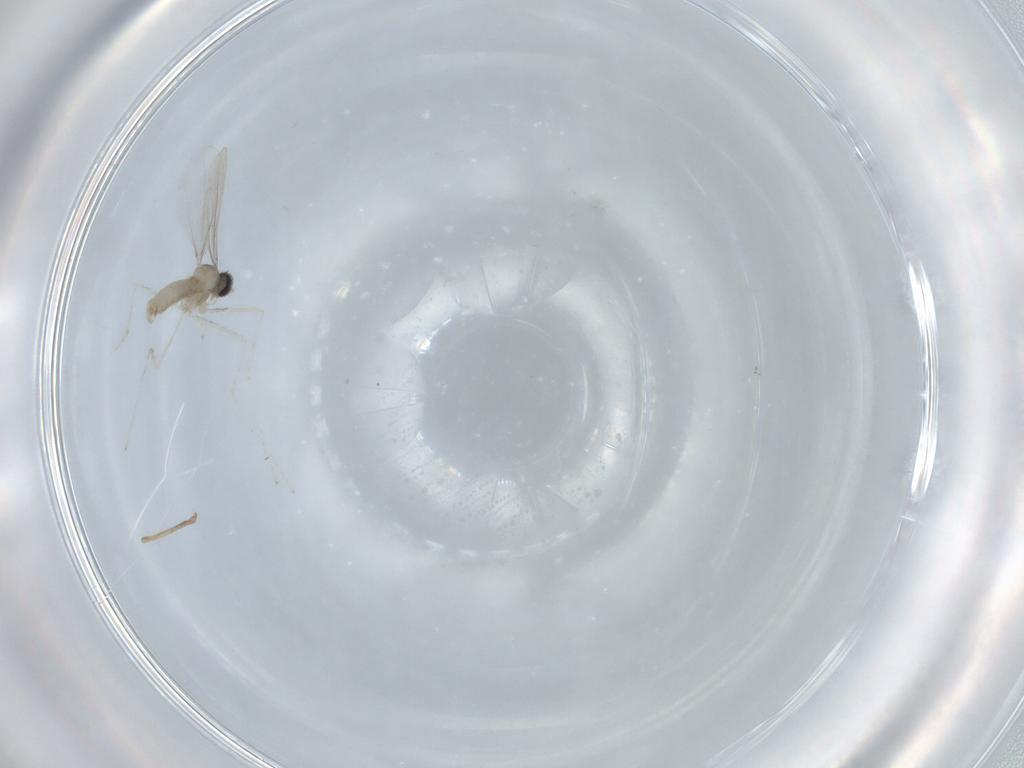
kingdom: Animalia
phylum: Arthropoda
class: Insecta
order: Diptera
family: Cecidomyiidae
